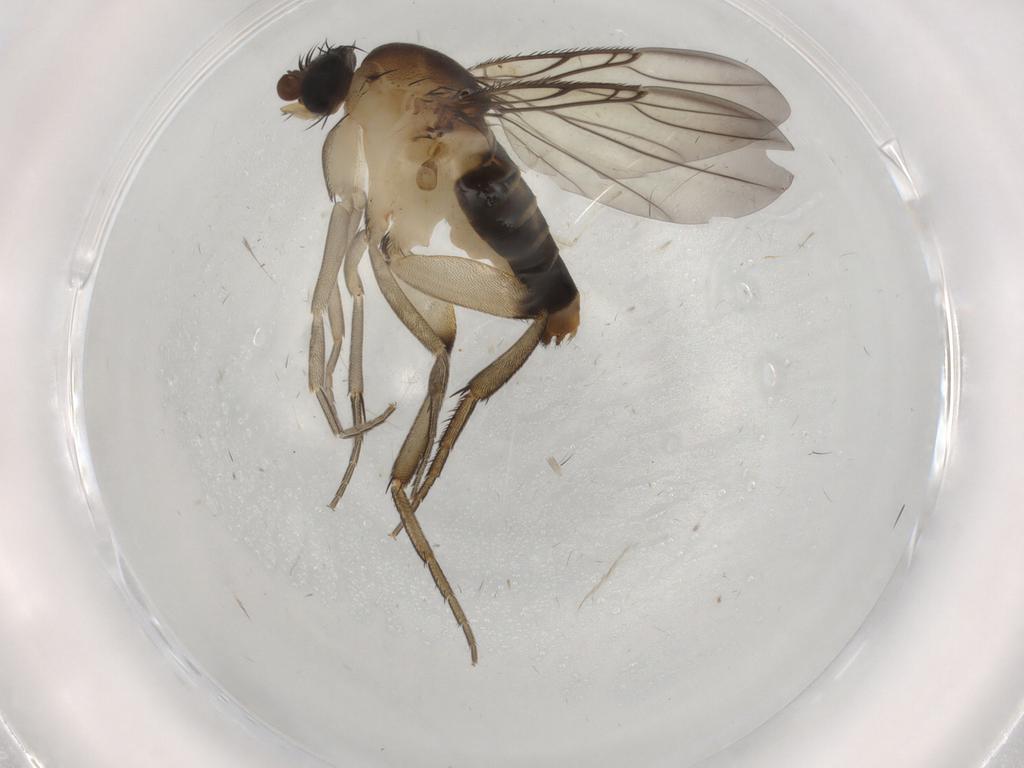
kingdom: Animalia
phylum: Arthropoda
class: Insecta
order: Diptera
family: Phoridae
